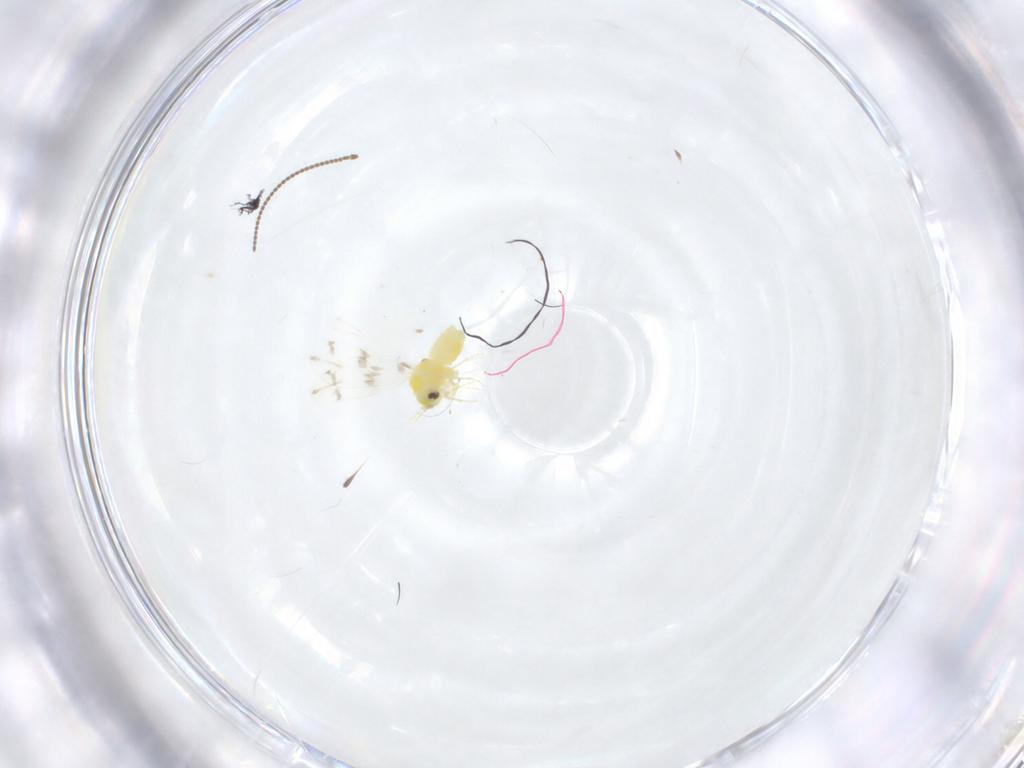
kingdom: Animalia
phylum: Arthropoda
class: Insecta
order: Hemiptera
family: Aleyrodidae
